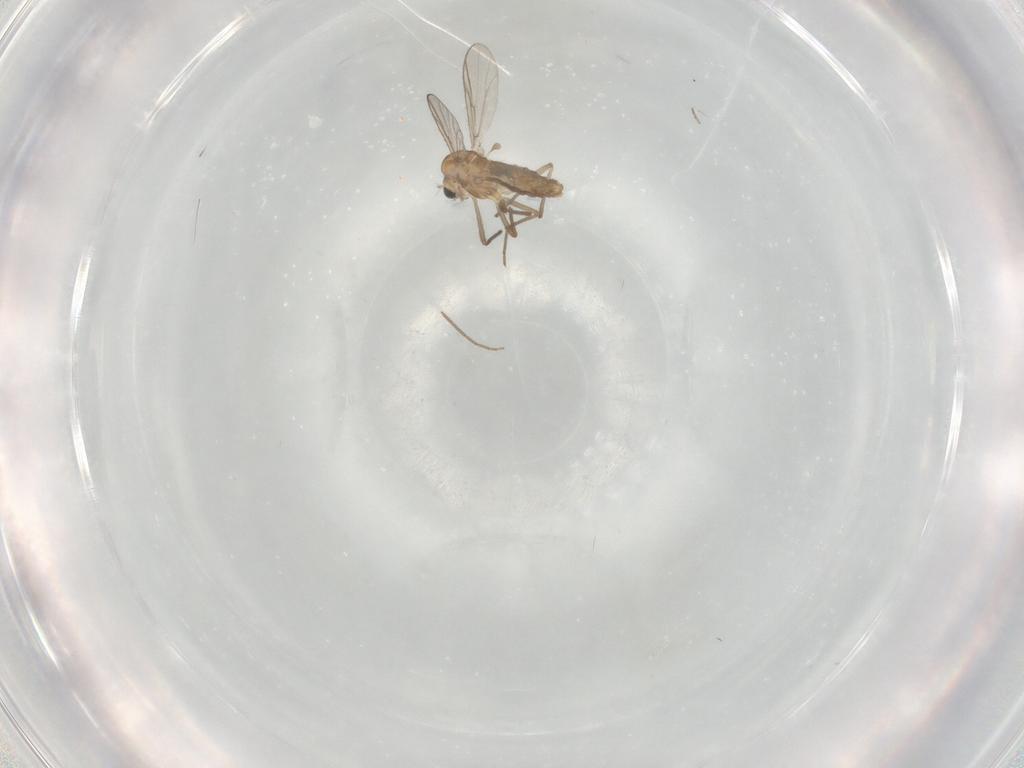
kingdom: Animalia
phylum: Arthropoda
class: Insecta
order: Diptera
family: Chironomidae
